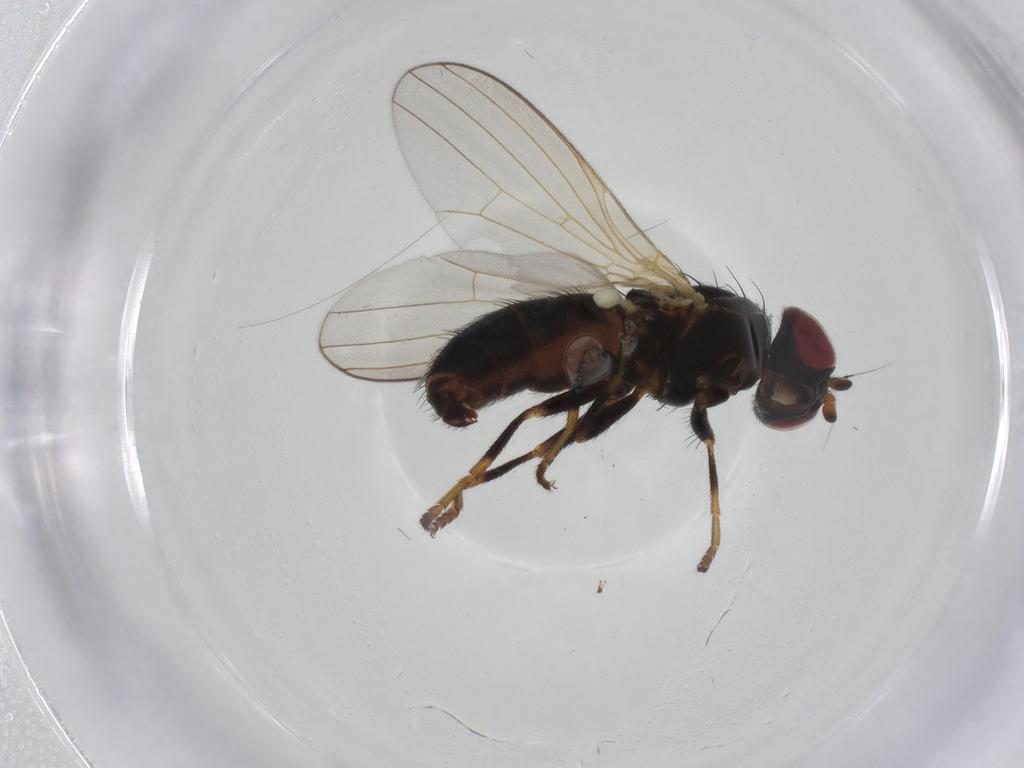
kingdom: Animalia
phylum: Arthropoda
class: Insecta
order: Diptera
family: Chamaemyiidae
